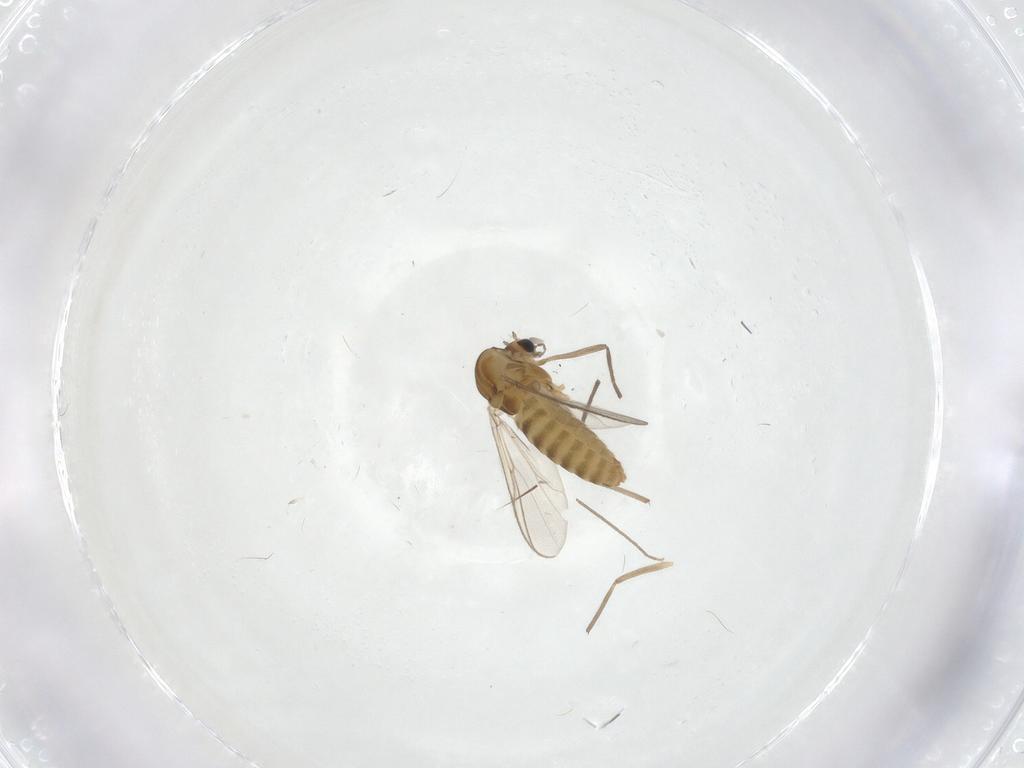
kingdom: Animalia
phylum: Arthropoda
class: Insecta
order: Diptera
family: Chironomidae
